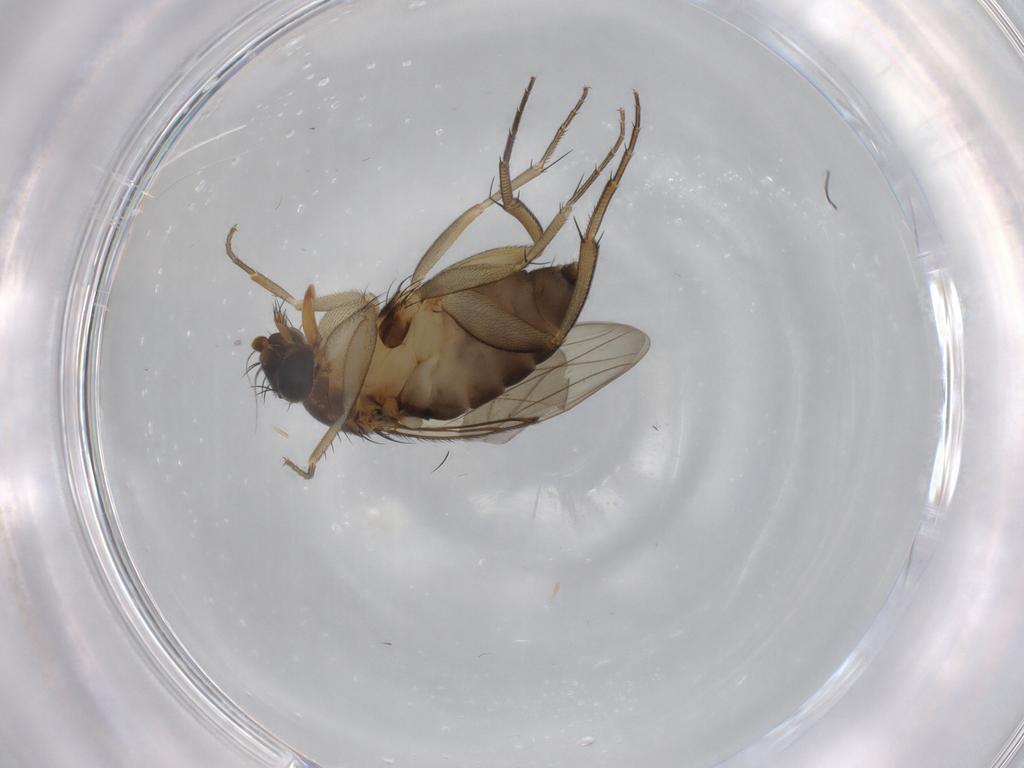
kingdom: Animalia
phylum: Arthropoda
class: Insecta
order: Diptera
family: Phoridae
